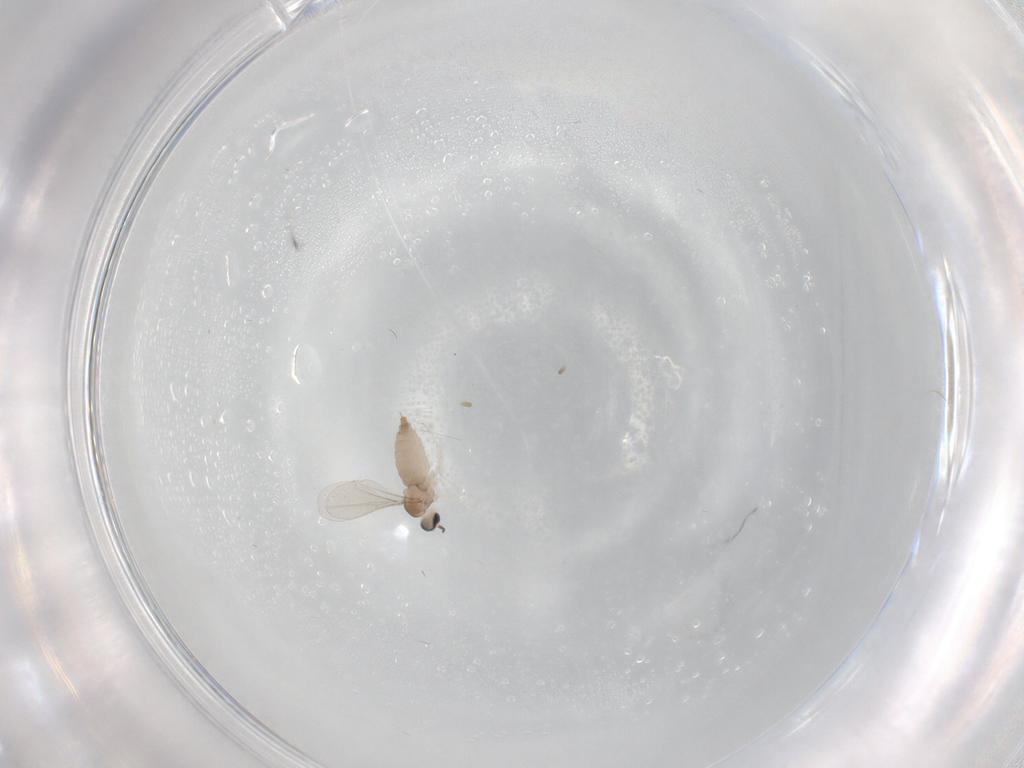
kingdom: Animalia
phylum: Arthropoda
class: Insecta
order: Diptera
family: Cecidomyiidae
